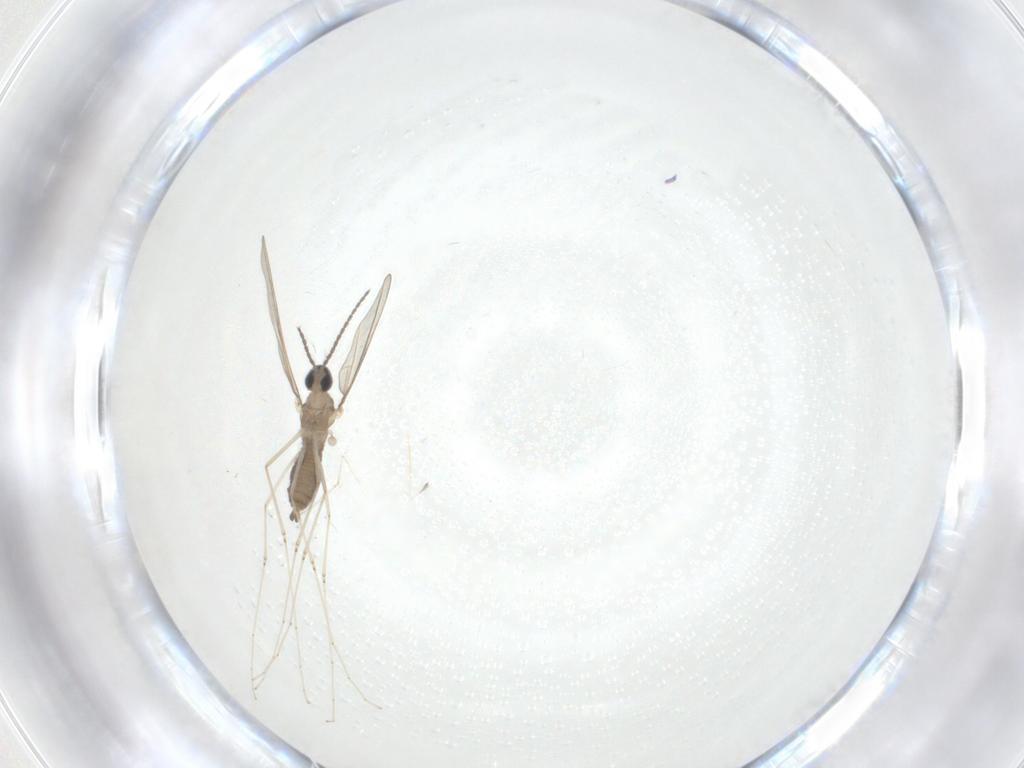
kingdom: Animalia
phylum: Arthropoda
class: Insecta
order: Diptera
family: Cecidomyiidae
